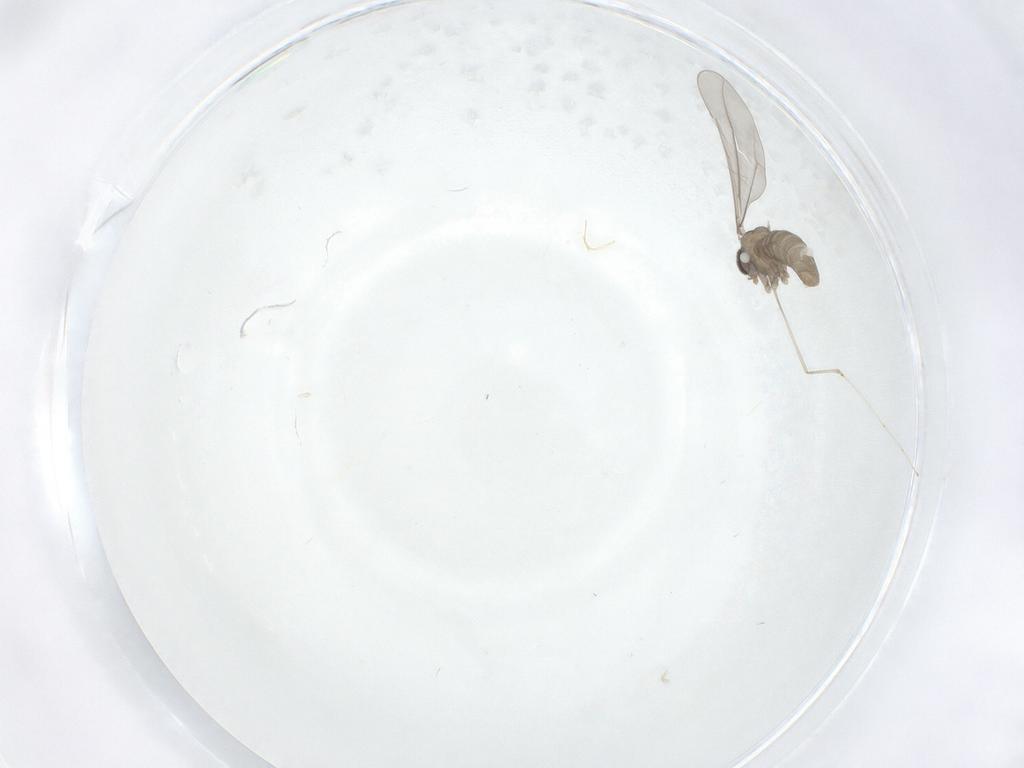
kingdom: Animalia
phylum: Arthropoda
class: Insecta
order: Diptera
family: Cecidomyiidae
